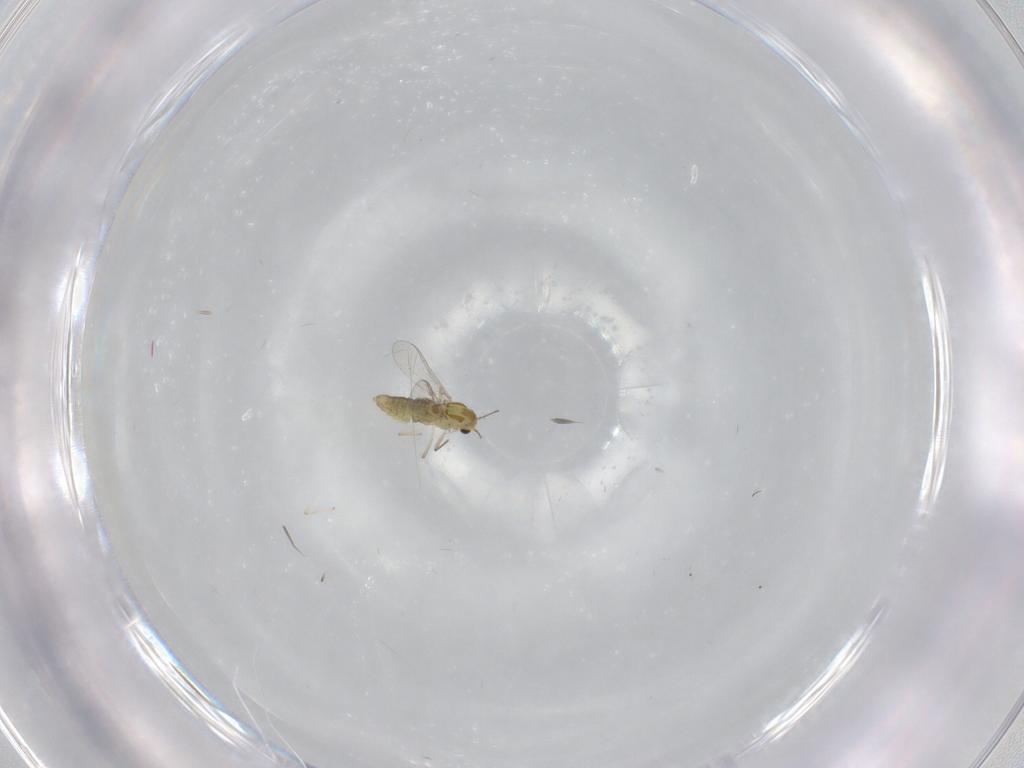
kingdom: Animalia
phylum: Arthropoda
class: Insecta
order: Diptera
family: Chironomidae
